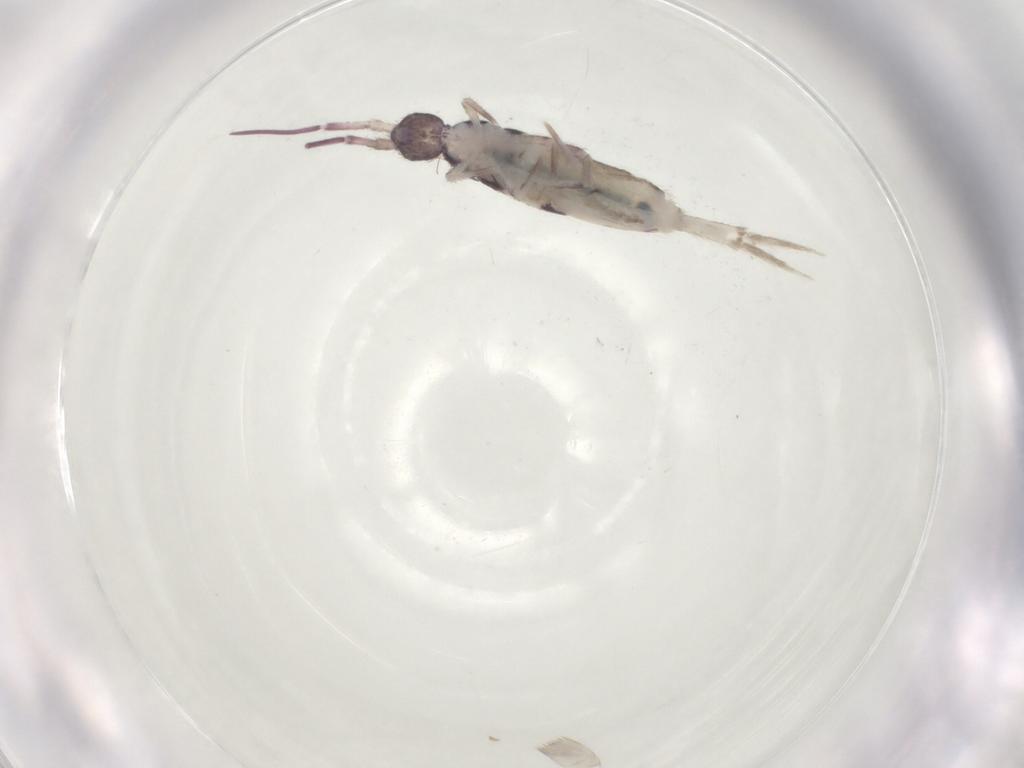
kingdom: Animalia
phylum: Arthropoda
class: Collembola
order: Entomobryomorpha
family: Entomobryidae
